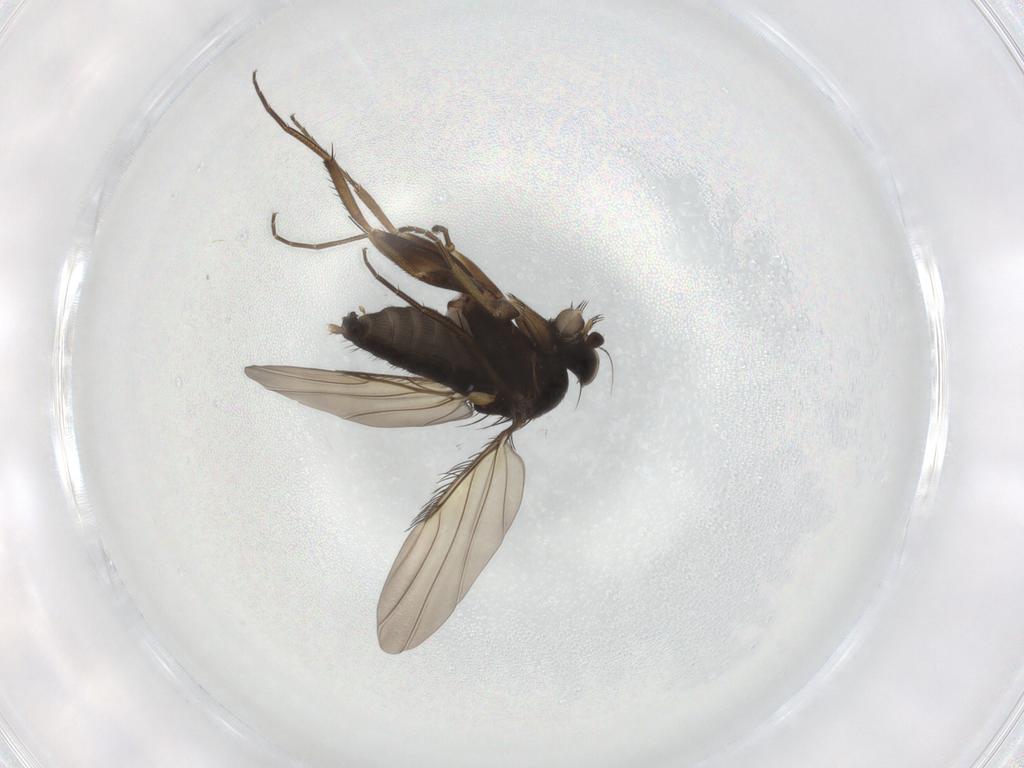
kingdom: Animalia
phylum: Arthropoda
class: Insecta
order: Diptera
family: Phoridae
